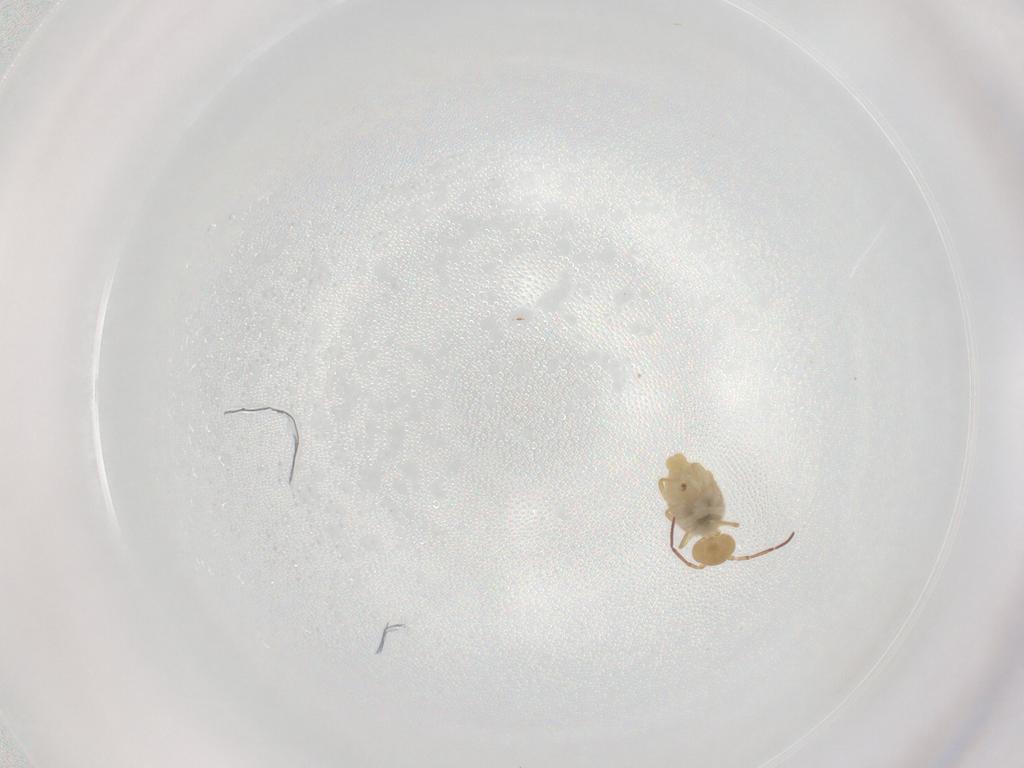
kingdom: Animalia
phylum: Arthropoda
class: Collembola
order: Symphypleona
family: Bourletiellidae
